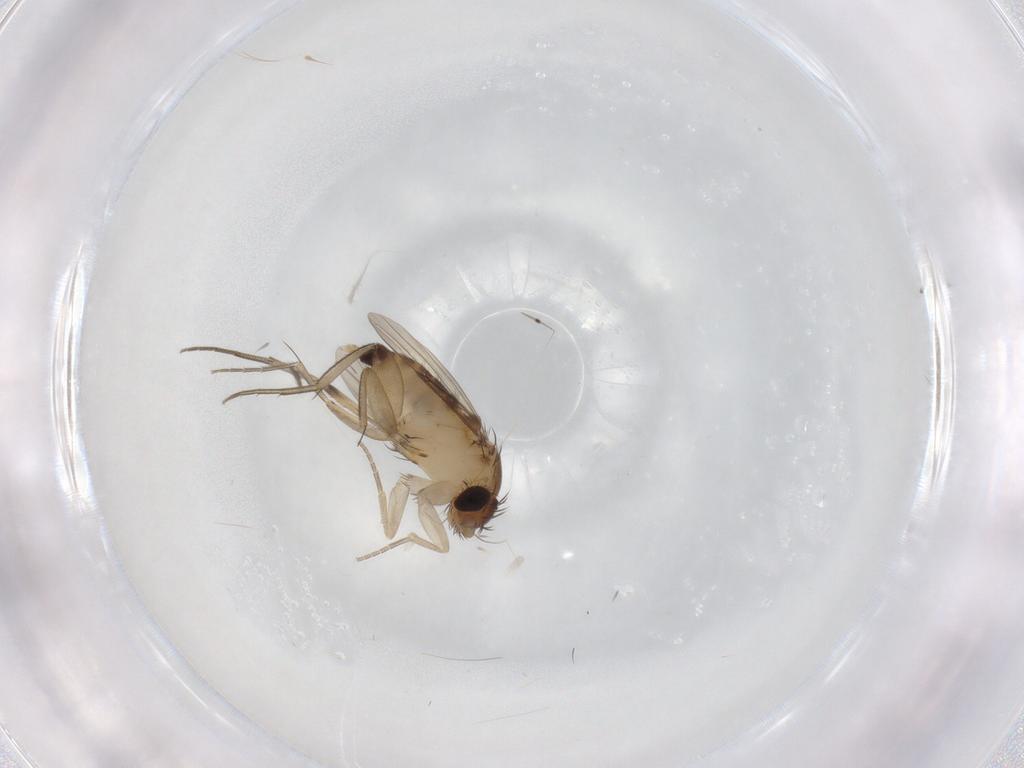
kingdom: Animalia
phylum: Arthropoda
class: Insecta
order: Diptera
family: Sciaridae
